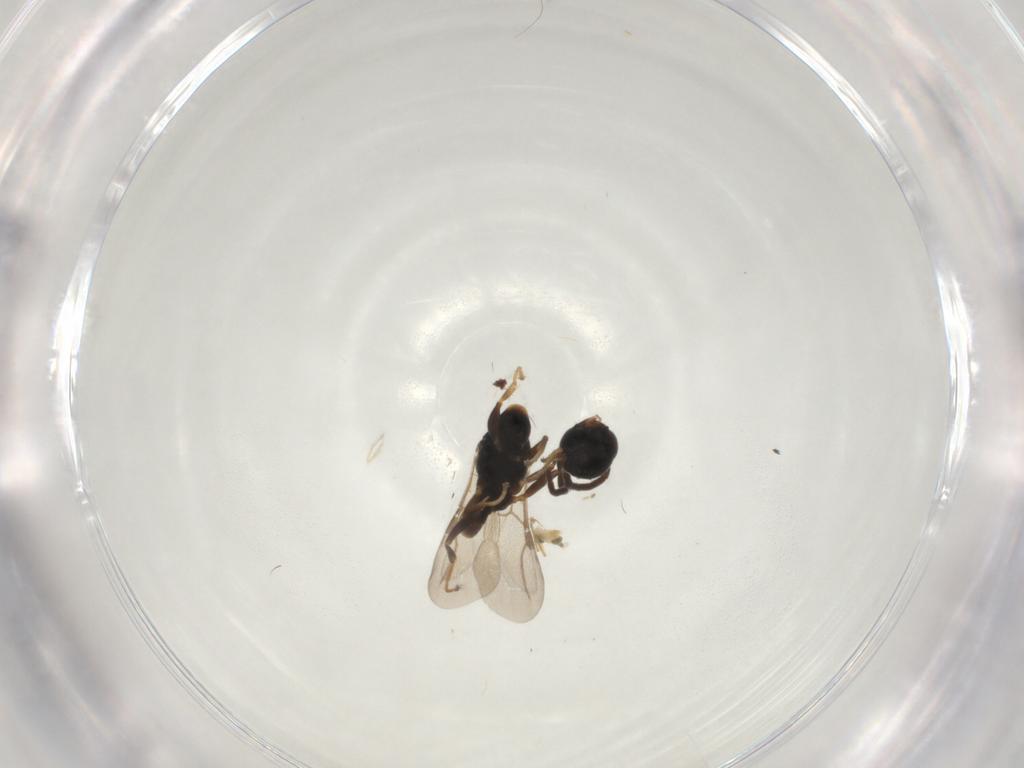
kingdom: Animalia
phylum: Arthropoda
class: Insecta
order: Hymenoptera
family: Bethylidae
